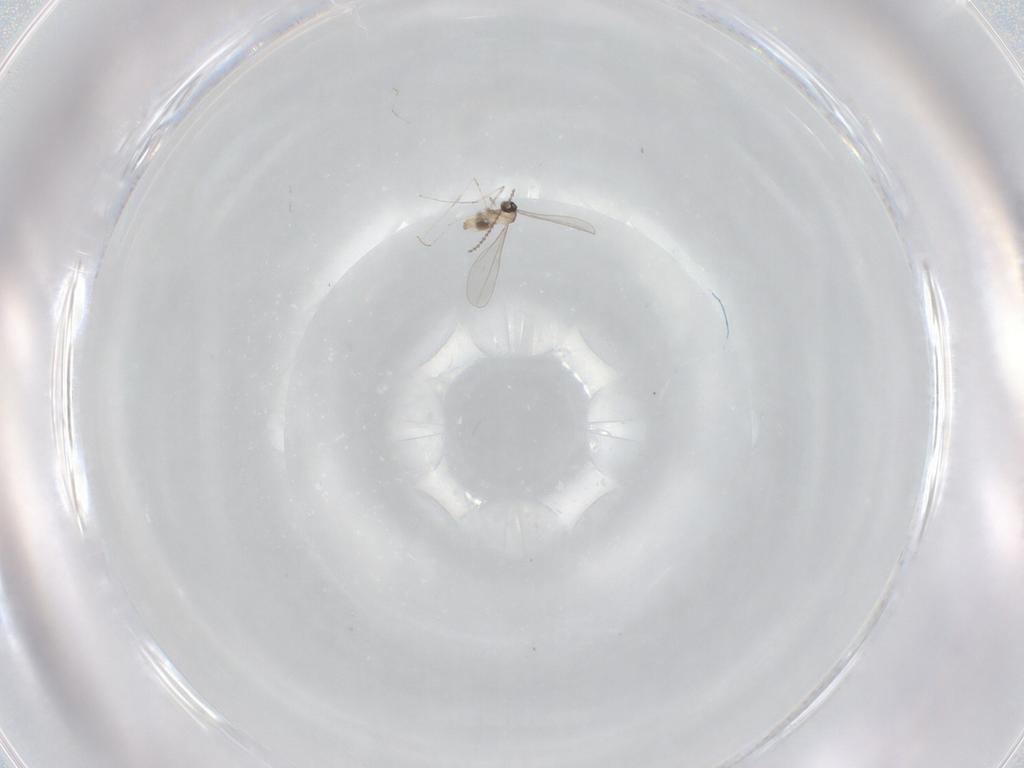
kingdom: Animalia
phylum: Arthropoda
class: Insecta
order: Diptera
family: Cecidomyiidae
